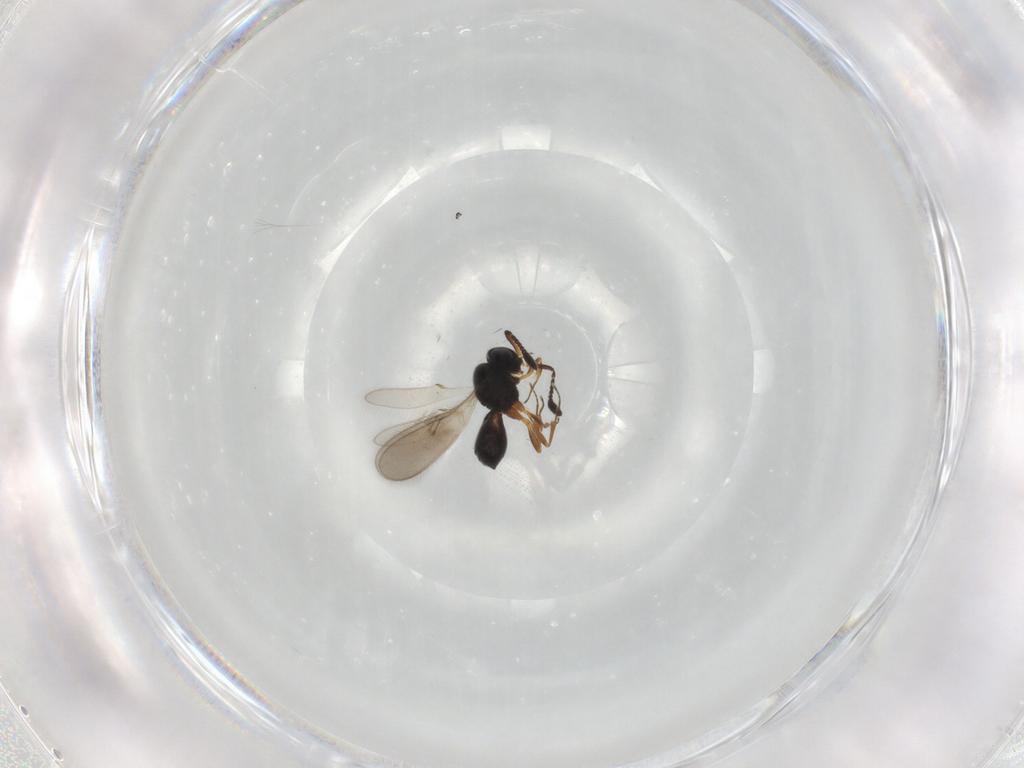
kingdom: Animalia
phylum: Arthropoda
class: Insecta
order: Hymenoptera
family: Scelionidae
